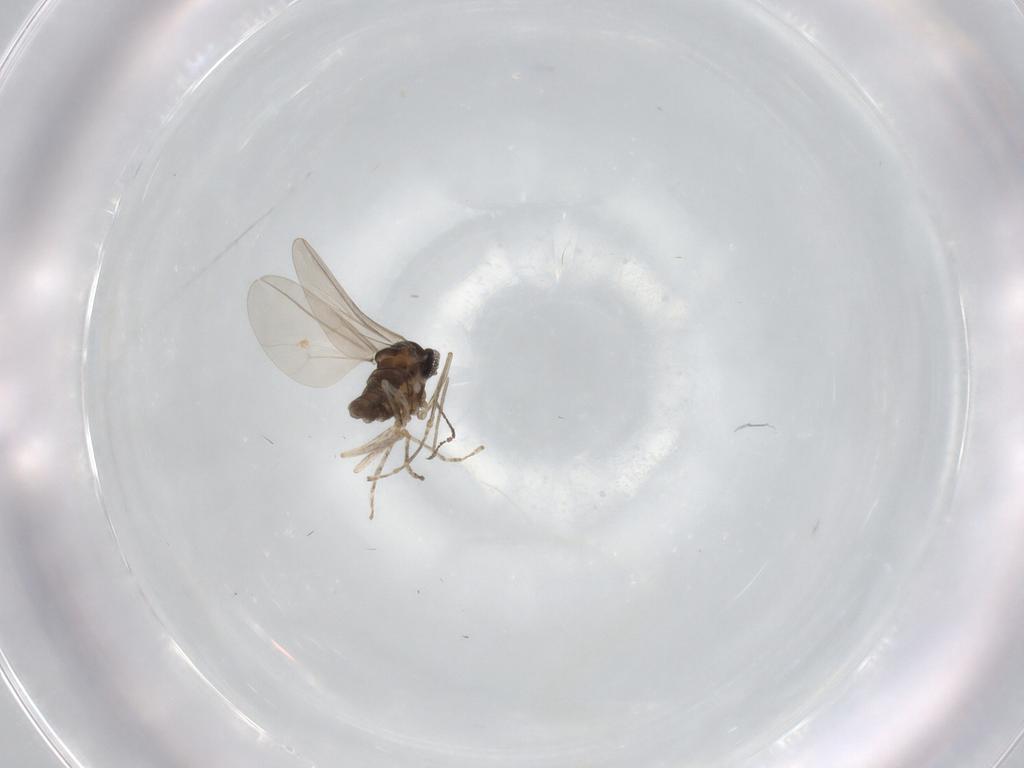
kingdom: Animalia
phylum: Arthropoda
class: Insecta
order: Diptera
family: Cecidomyiidae
